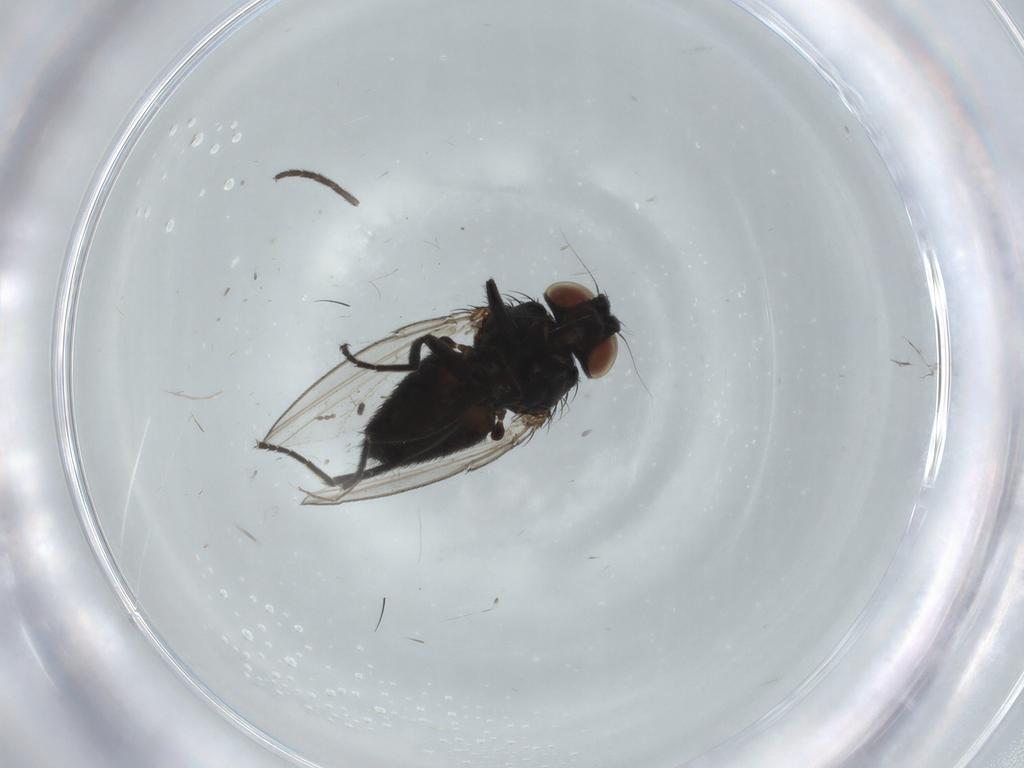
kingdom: Animalia
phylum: Arthropoda
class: Insecta
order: Diptera
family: Milichiidae
